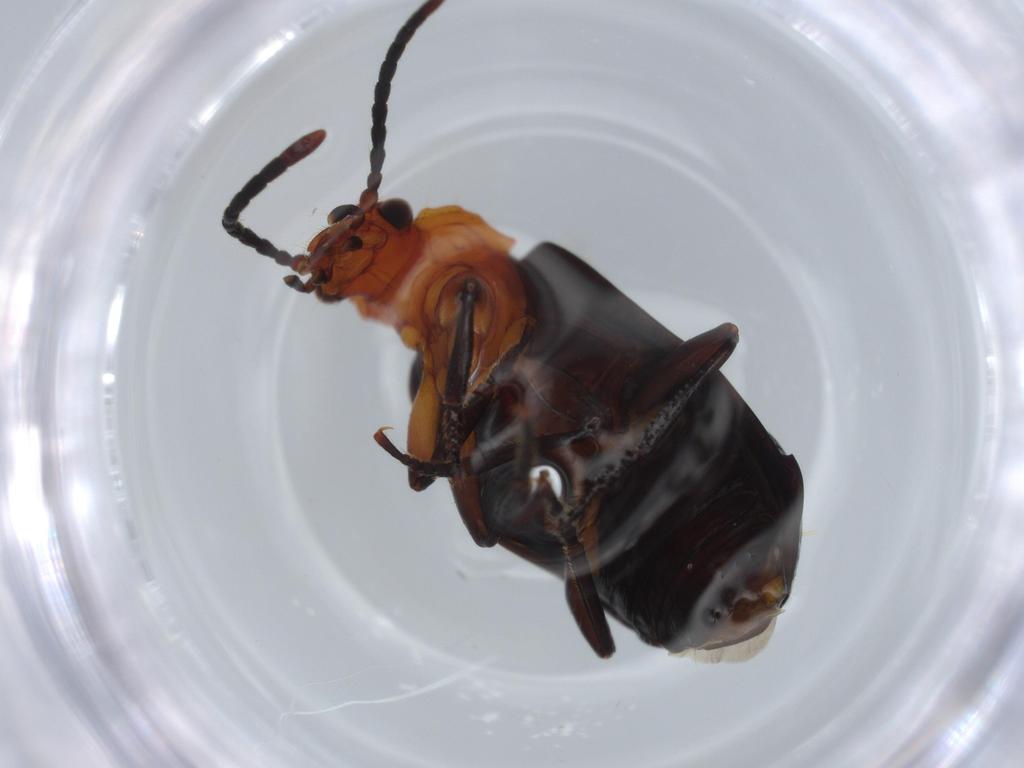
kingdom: Animalia
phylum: Arthropoda
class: Insecta
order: Coleoptera
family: Carabidae
